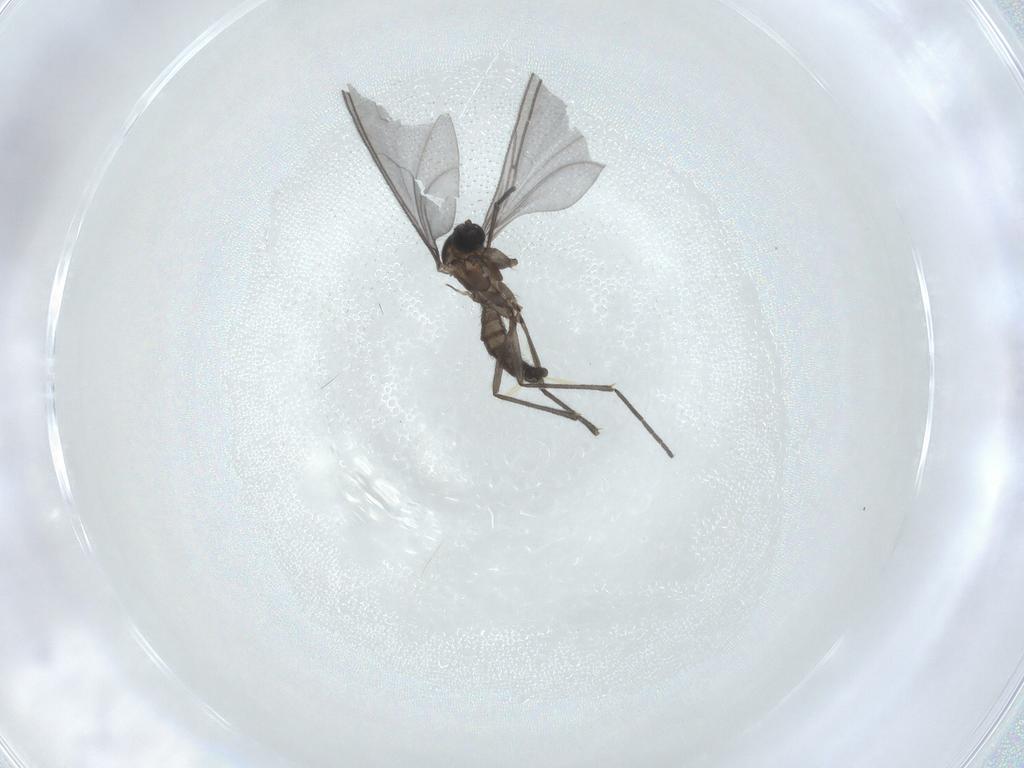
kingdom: Animalia
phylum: Arthropoda
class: Insecta
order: Diptera
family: Sciaridae
